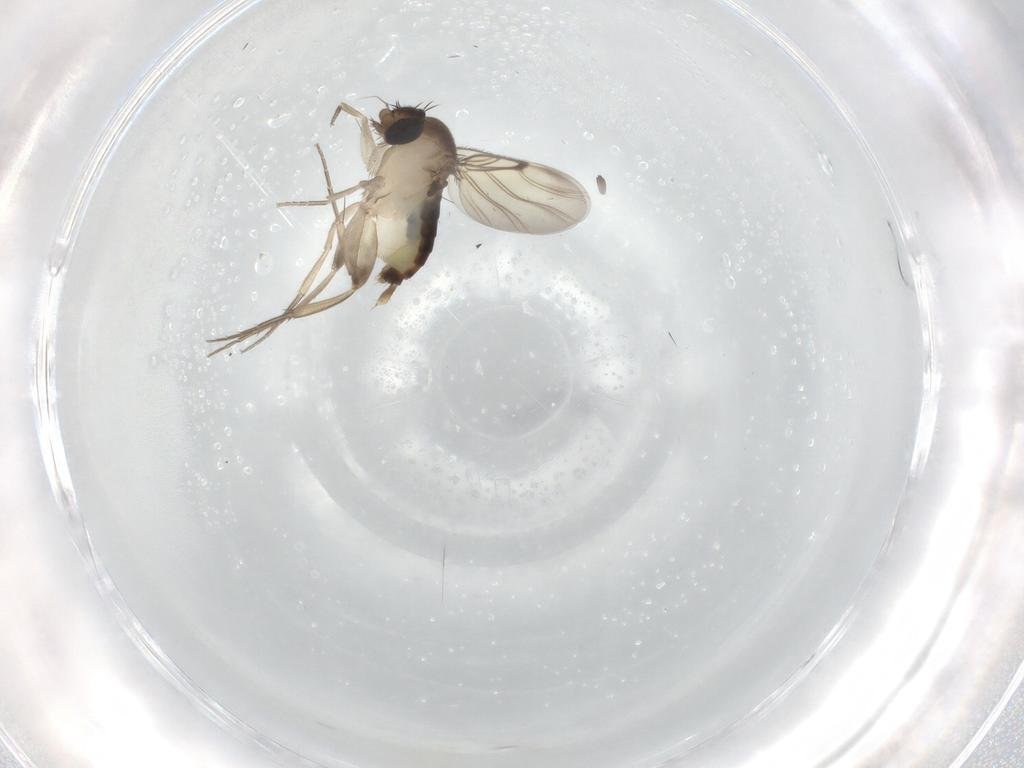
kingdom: Animalia
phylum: Arthropoda
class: Insecta
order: Diptera
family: Phoridae
